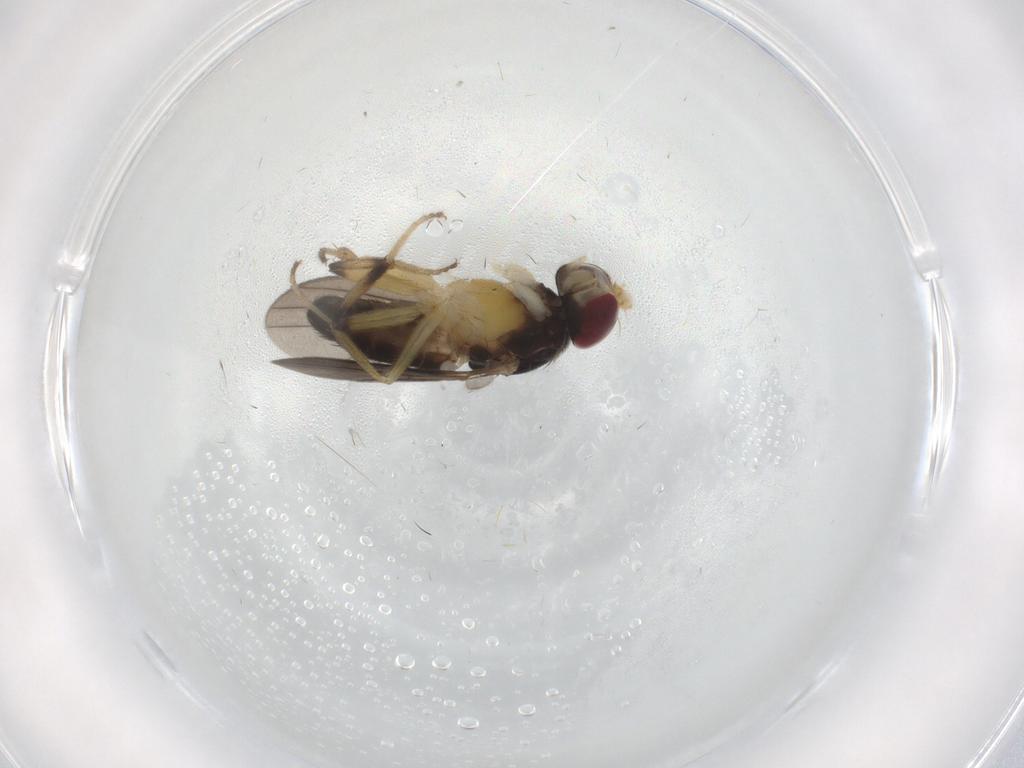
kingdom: Animalia
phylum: Arthropoda
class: Insecta
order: Diptera
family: Clusiidae
